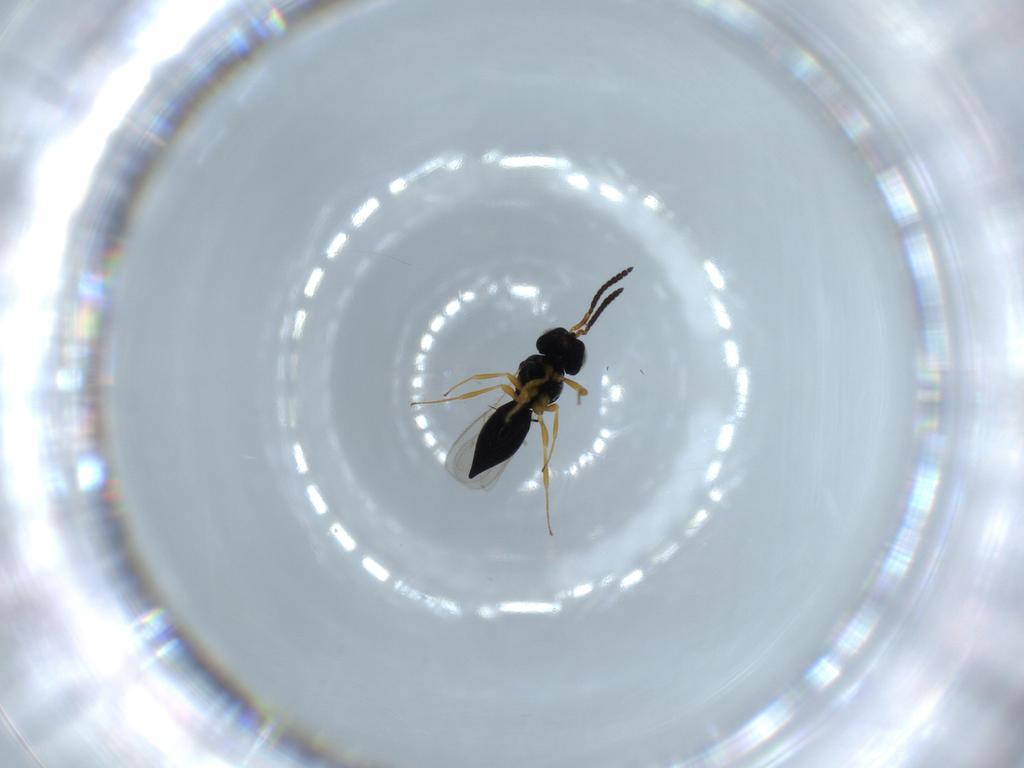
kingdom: Animalia
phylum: Arthropoda
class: Insecta
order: Hymenoptera
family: Scelionidae
